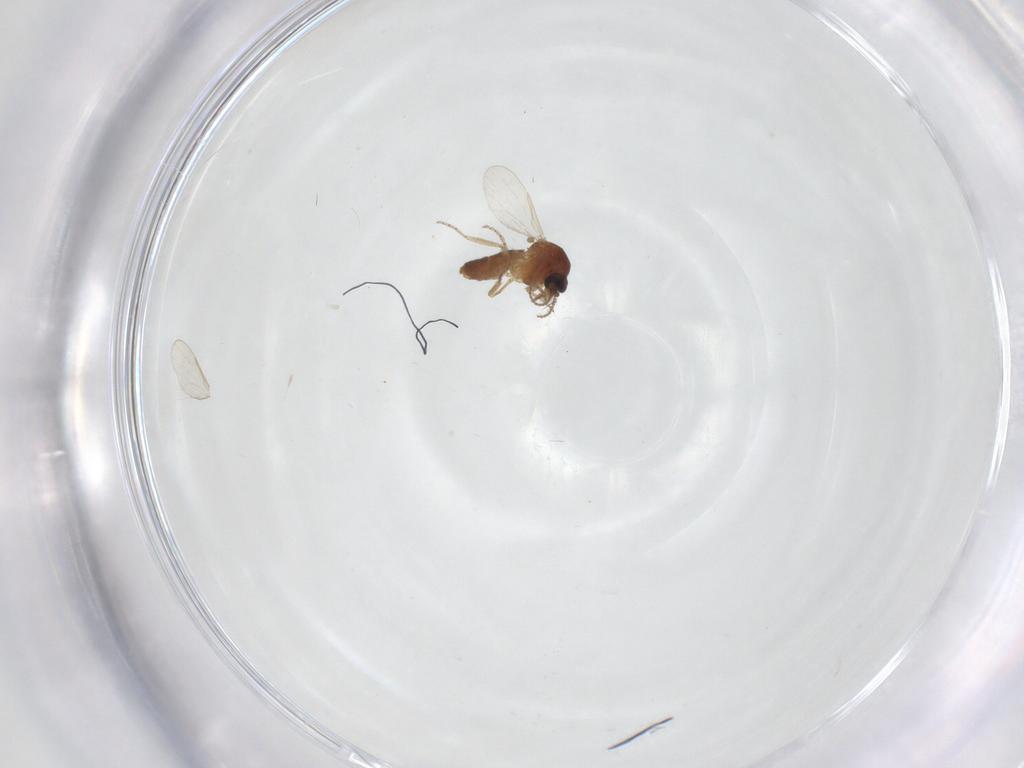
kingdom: Animalia
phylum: Arthropoda
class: Insecta
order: Diptera
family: Ceratopogonidae
